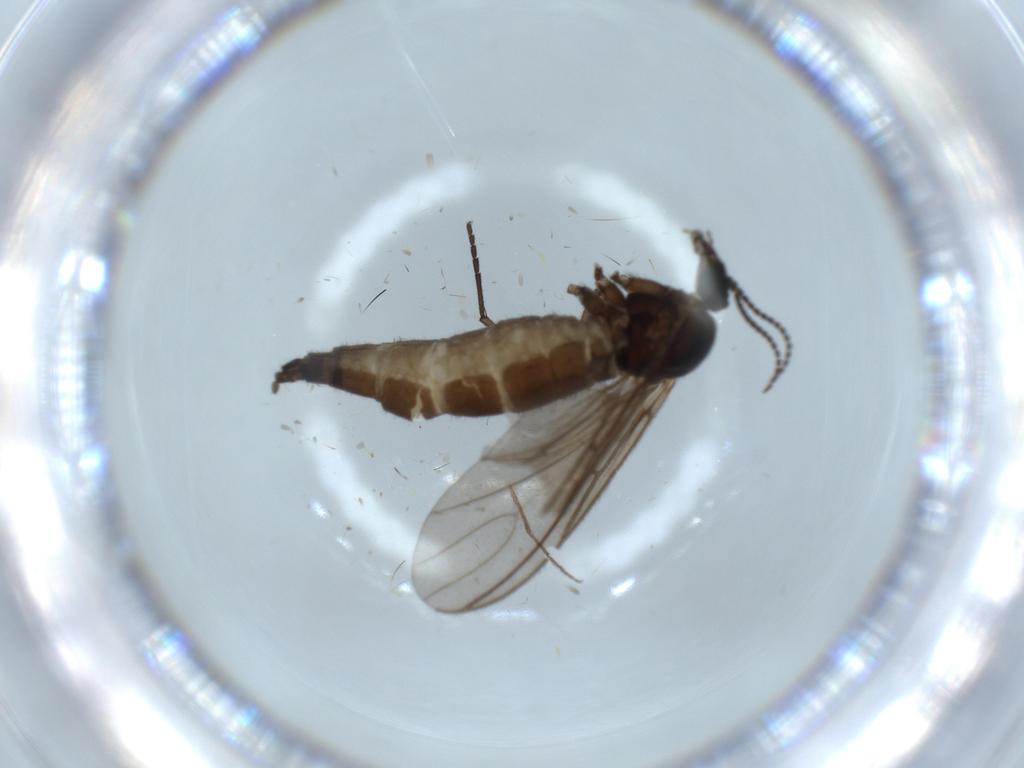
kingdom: Animalia
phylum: Arthropoda
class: Insecta
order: Diptera
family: Sciaridae
